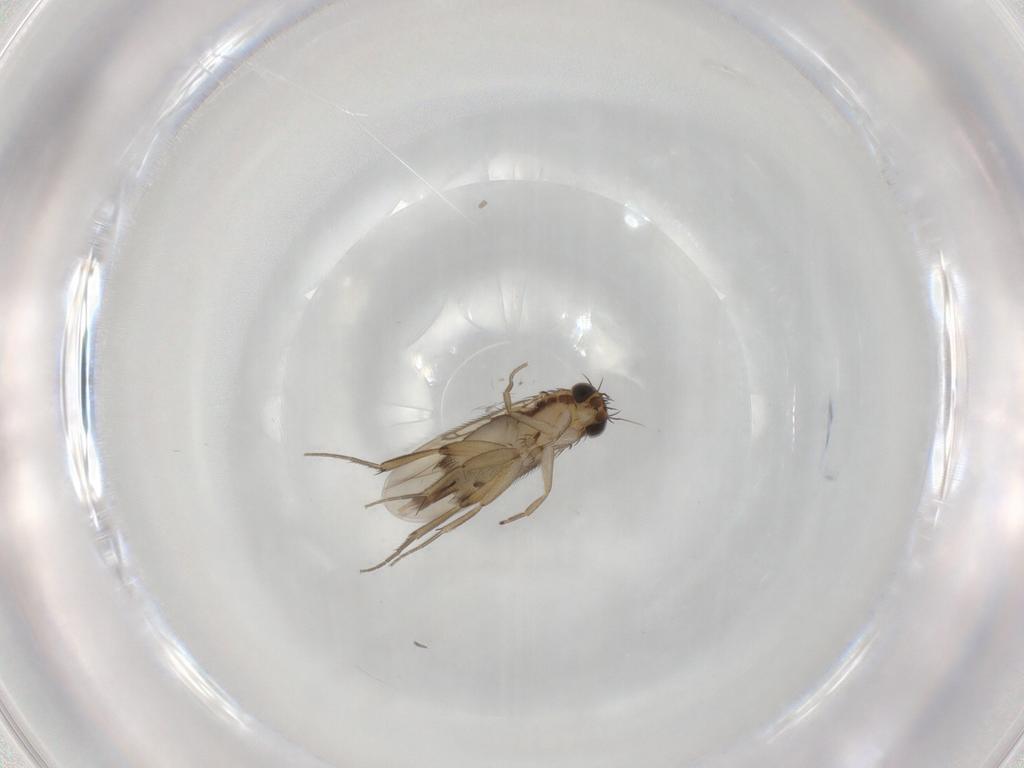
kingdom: Animalia
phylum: Arthropoda
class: Insecta
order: Diptera
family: Phoridae
